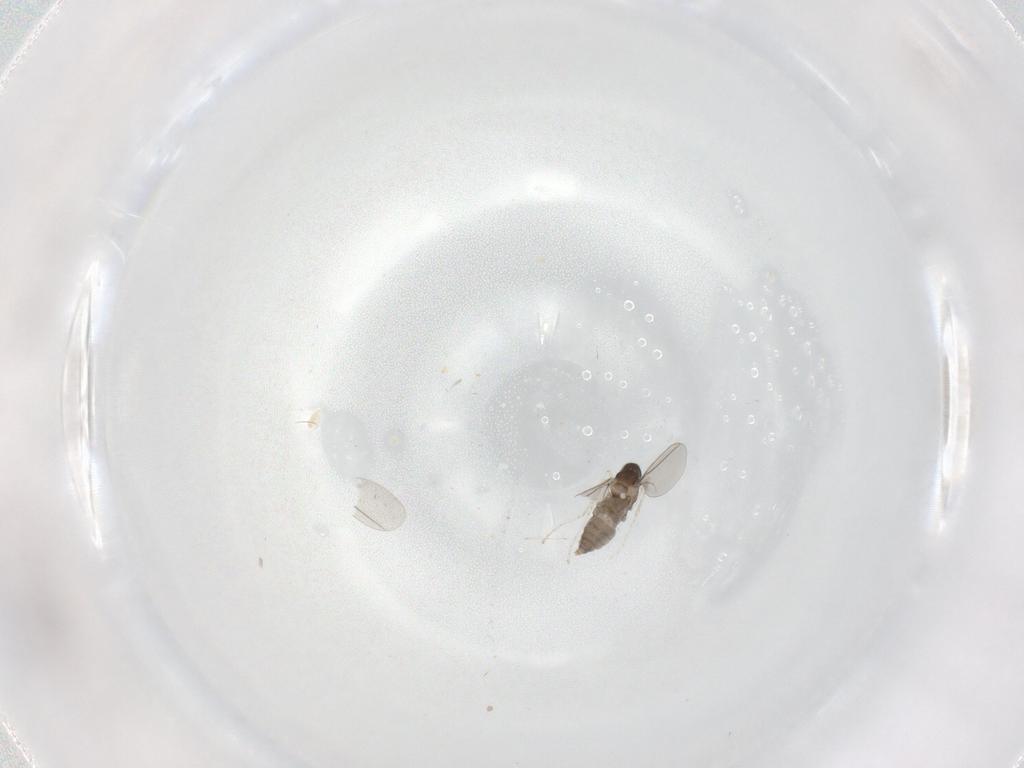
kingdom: Animalia
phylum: Arthropoda
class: Insecta
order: Diptera
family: Cecidomyiidae
